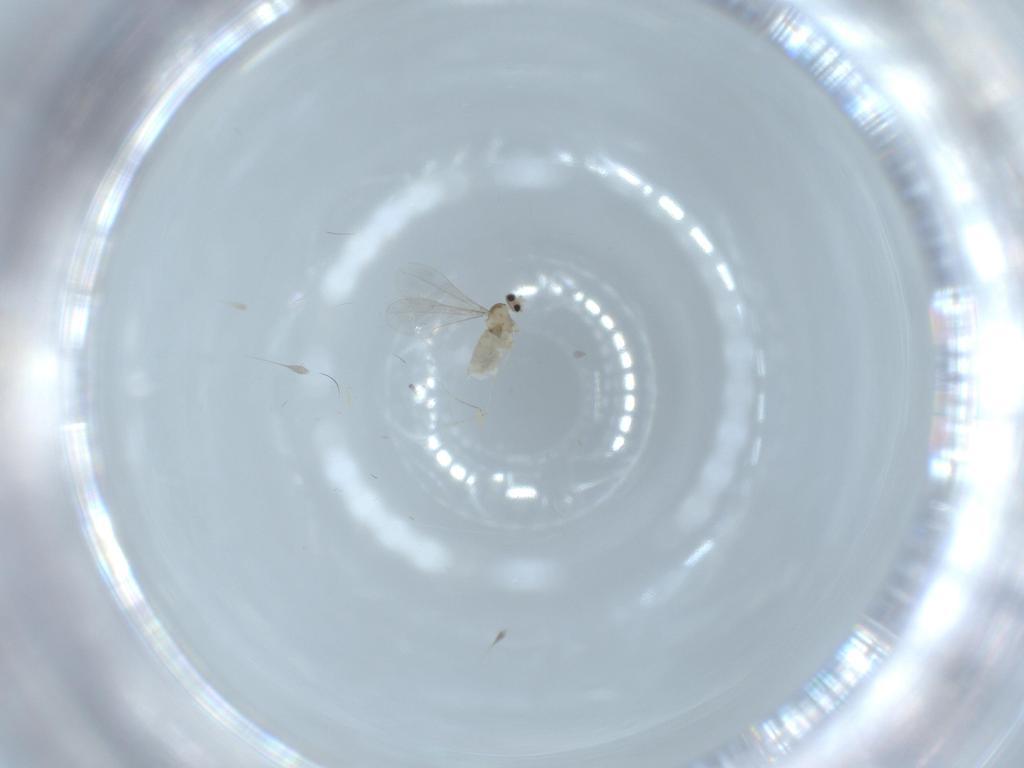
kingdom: Animalia
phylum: Arthropoda
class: Insecta
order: Diptera
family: Cecidomyiidae
